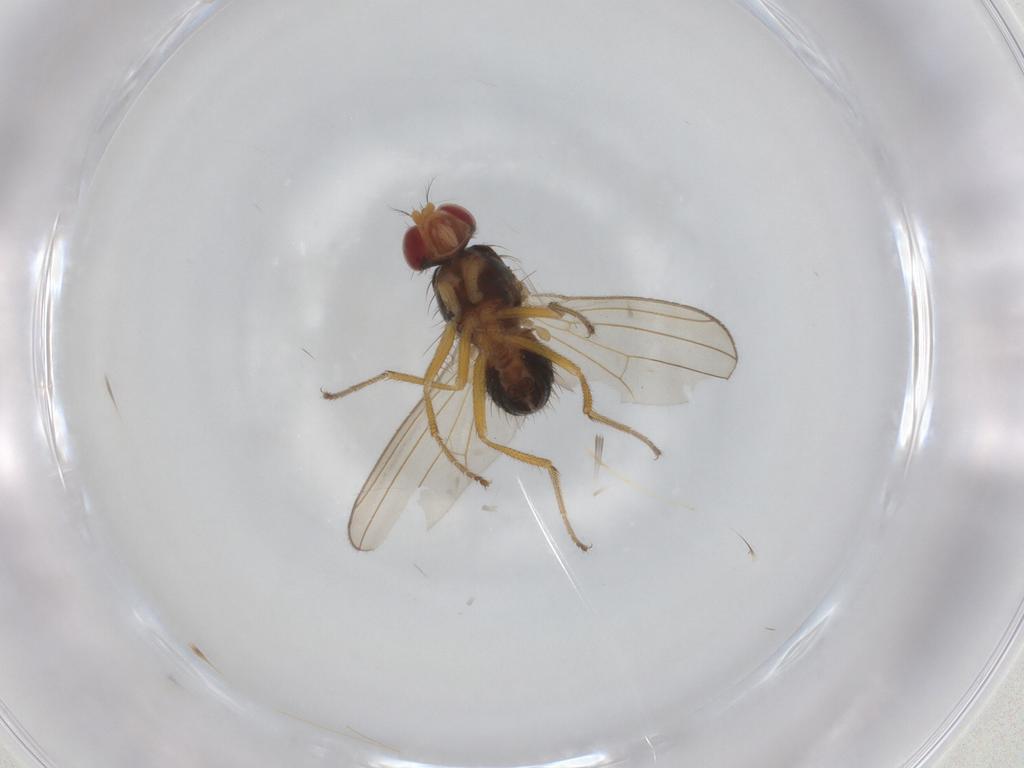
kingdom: Animalia
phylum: Arthropoda
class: Insecta
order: Diptera
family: Drosophilidae
